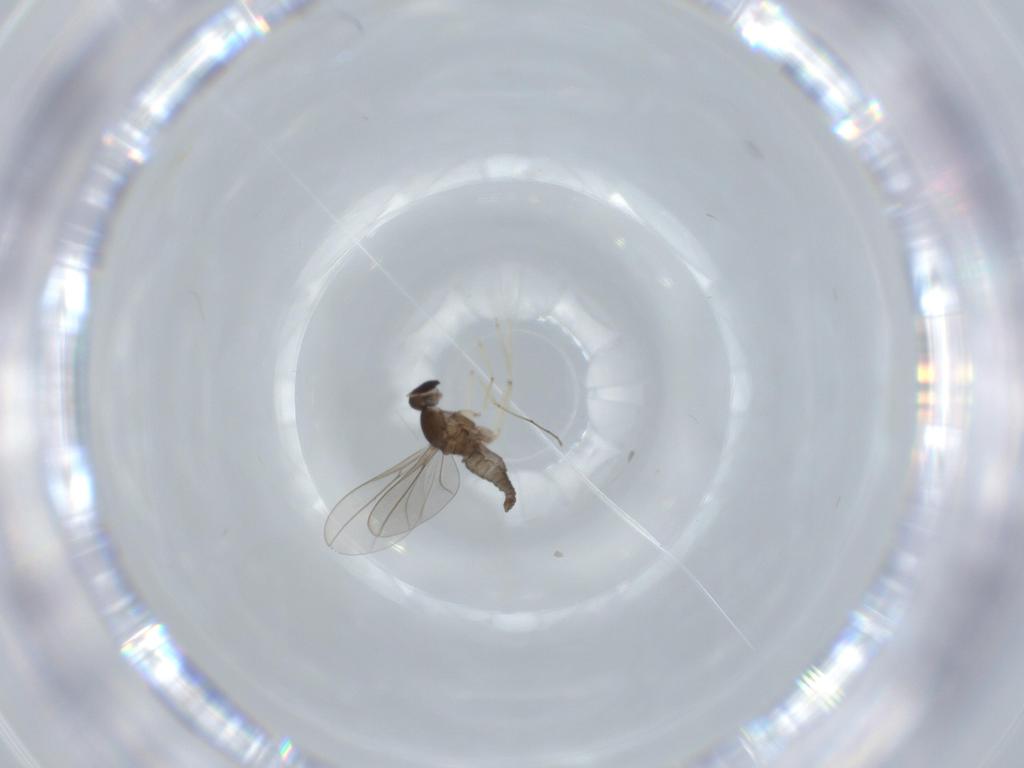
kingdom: Animalia
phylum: Arthropoda
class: Insecta
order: Diptera
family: Cecidomyiidae
